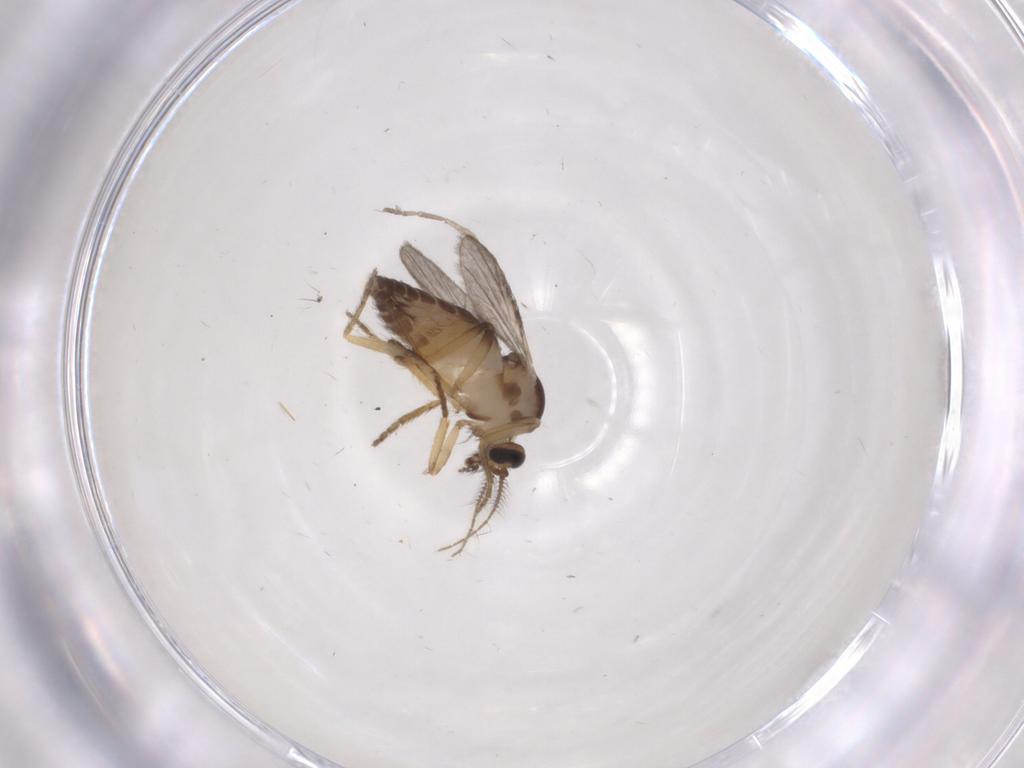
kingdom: Animalia
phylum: Arthropoda
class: Insecta
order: Diptera
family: Ceratopogonidae
